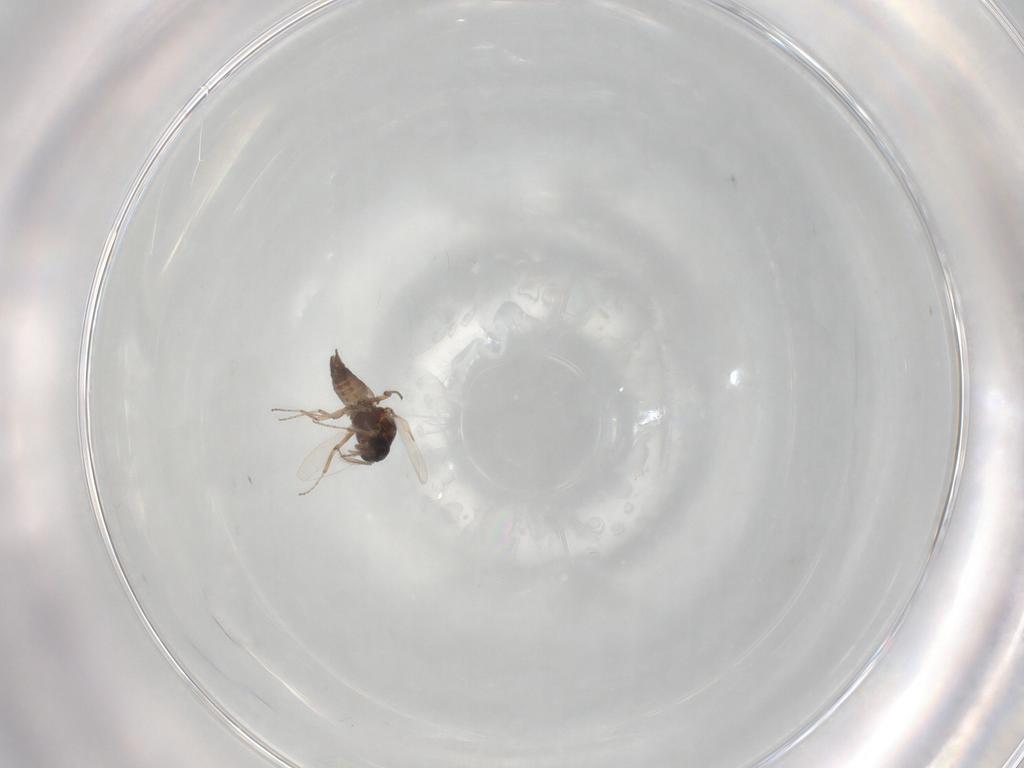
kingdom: Animalia
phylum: Arthropoda
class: Insecta
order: Diptera
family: Ceratopogonidae
